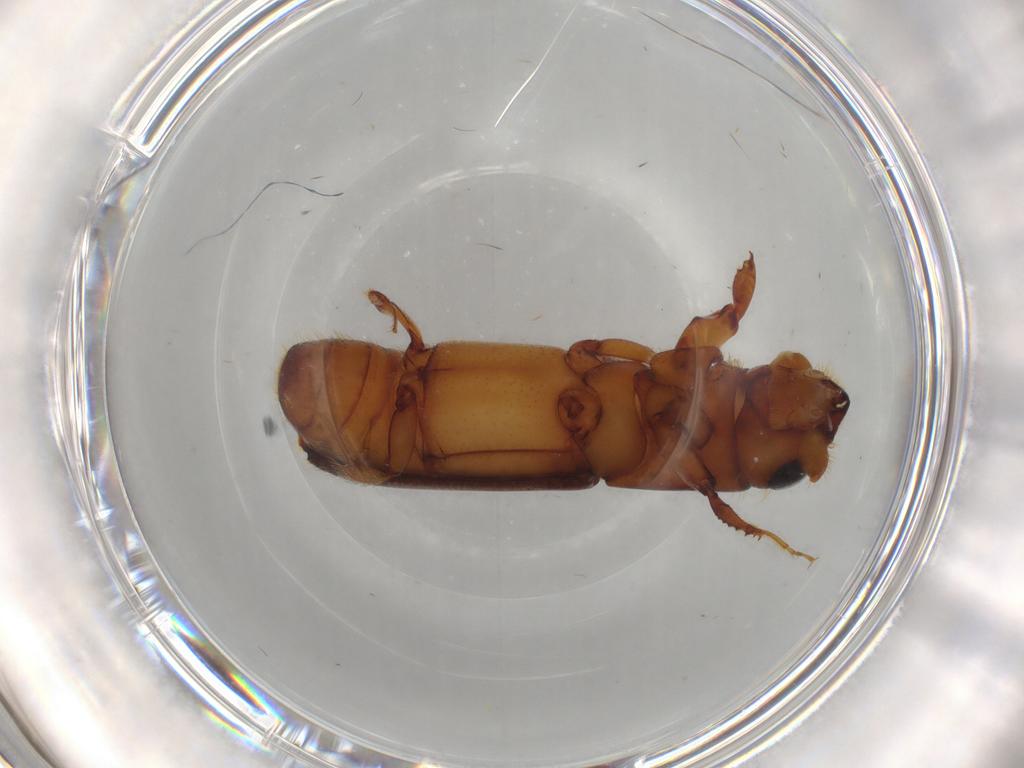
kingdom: Animalia
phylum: Arthropoda
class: Insecta
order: Coleoptera
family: Curculionidae
